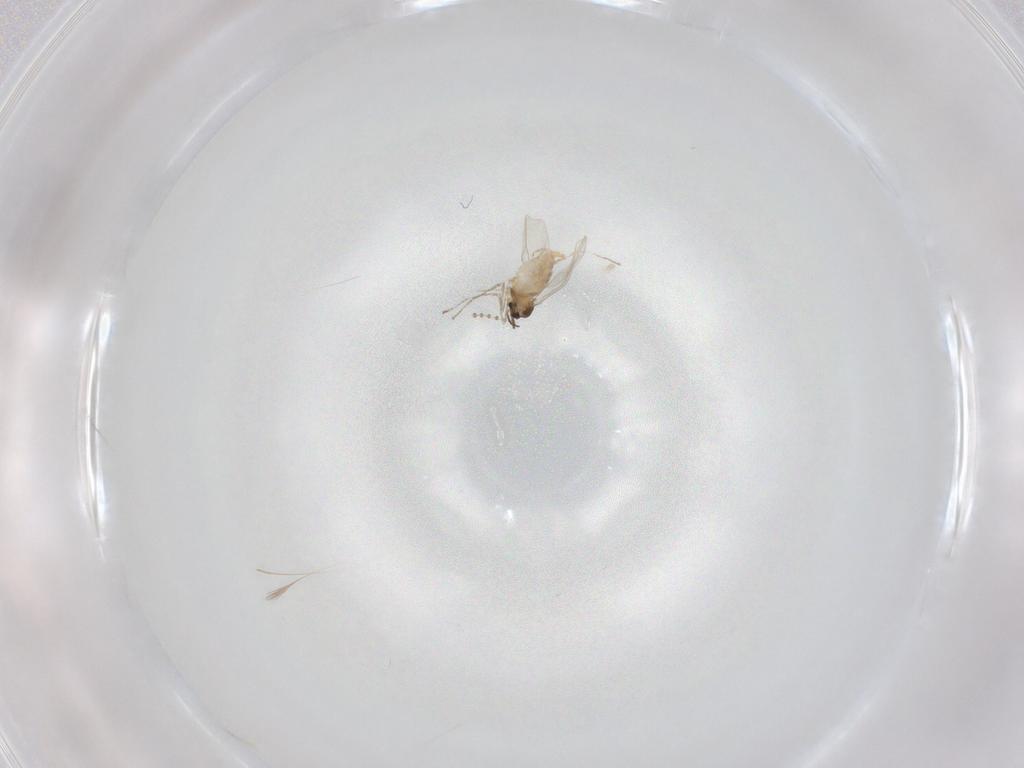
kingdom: Animalia
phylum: Arthropoda
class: Insecta
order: Diptera
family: Cecidomyiidae
